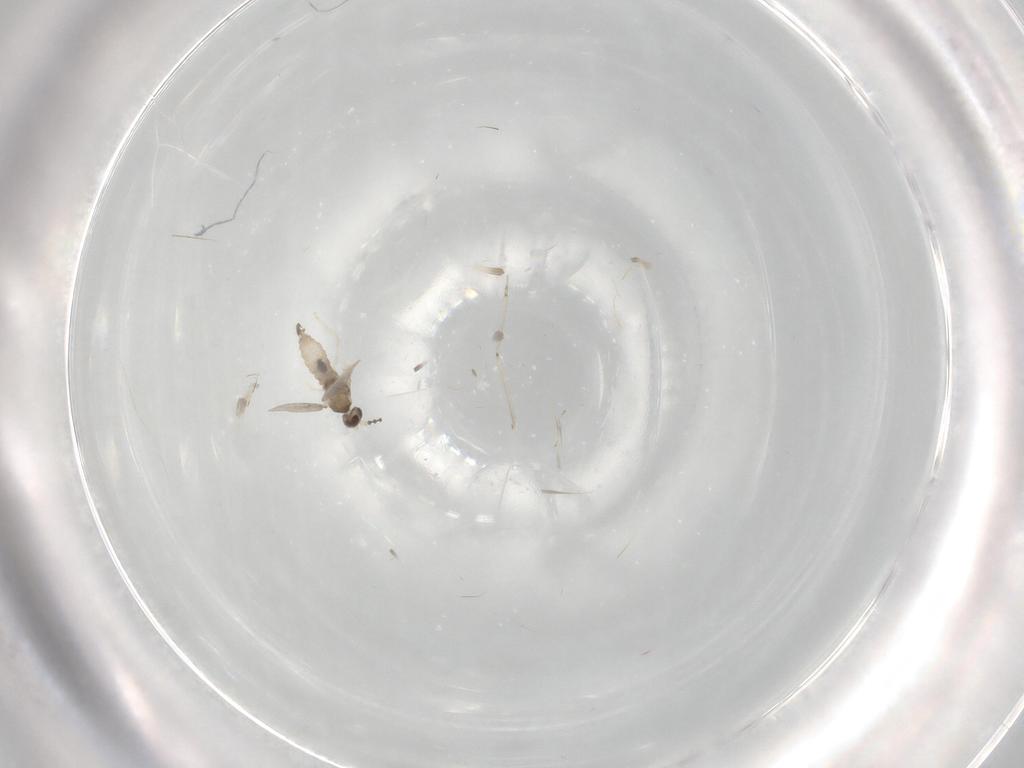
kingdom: Animalia
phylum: Arthropoda
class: Insecta
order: Diptera
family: Cecidomyiidae
